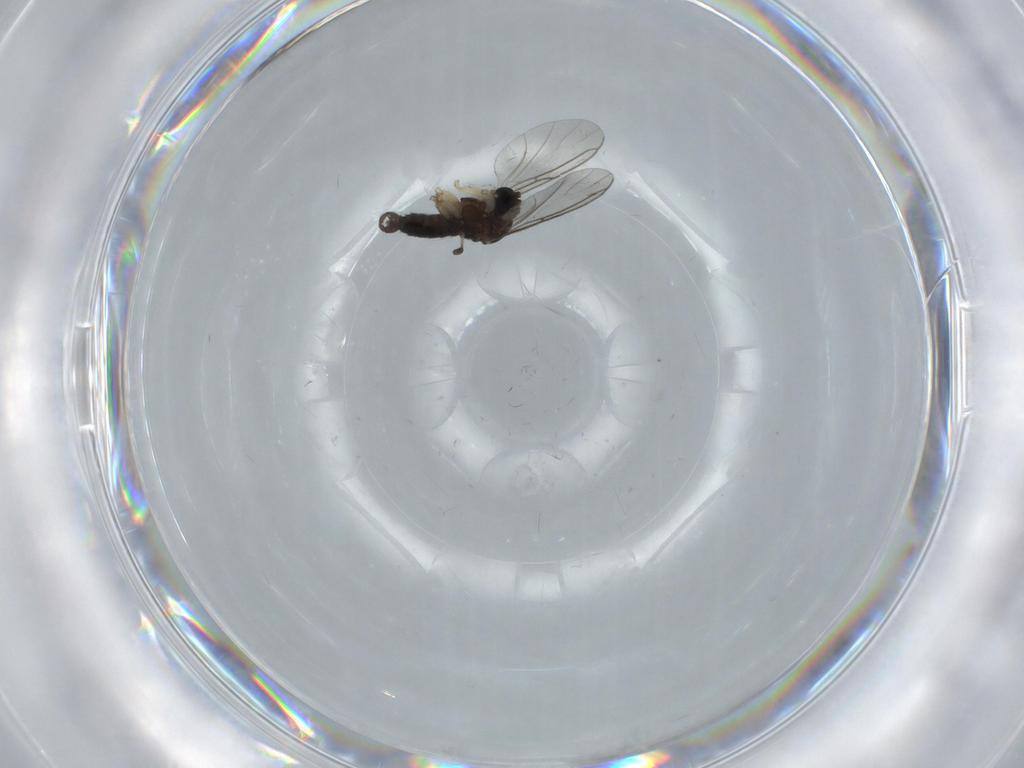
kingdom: Animalia
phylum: Arthropoda
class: Insecta
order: Diptera
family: Sciaridae
